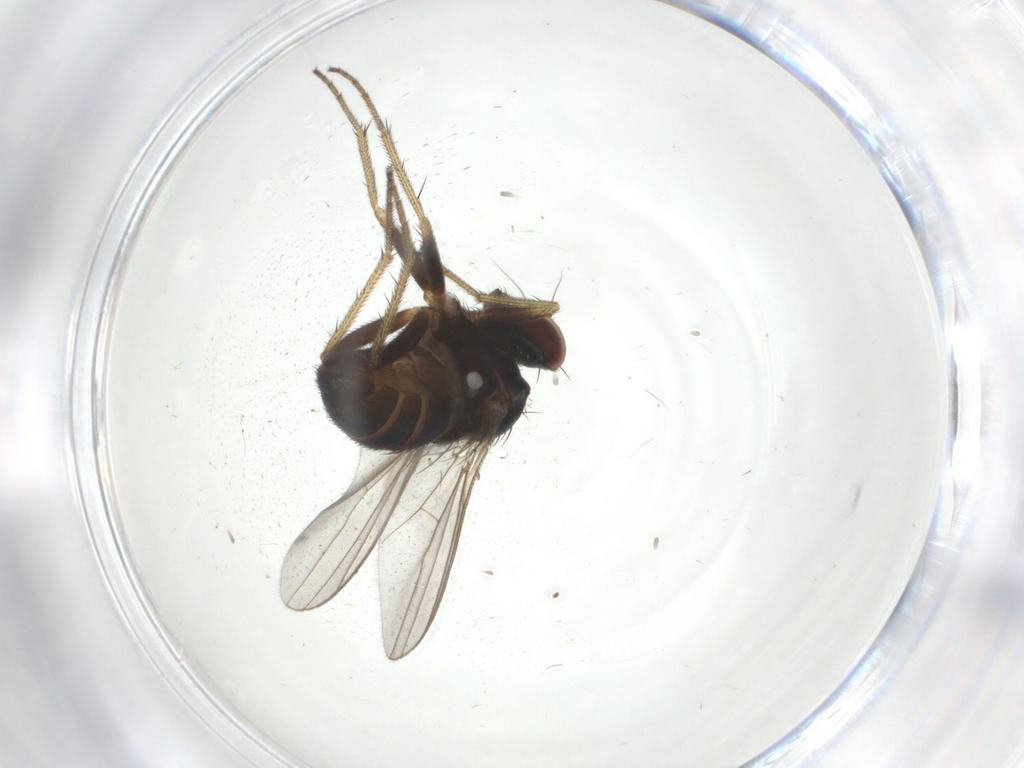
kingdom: Animalia
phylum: Arthropoda
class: Insecta
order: Diptera
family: Dolichopodidae
